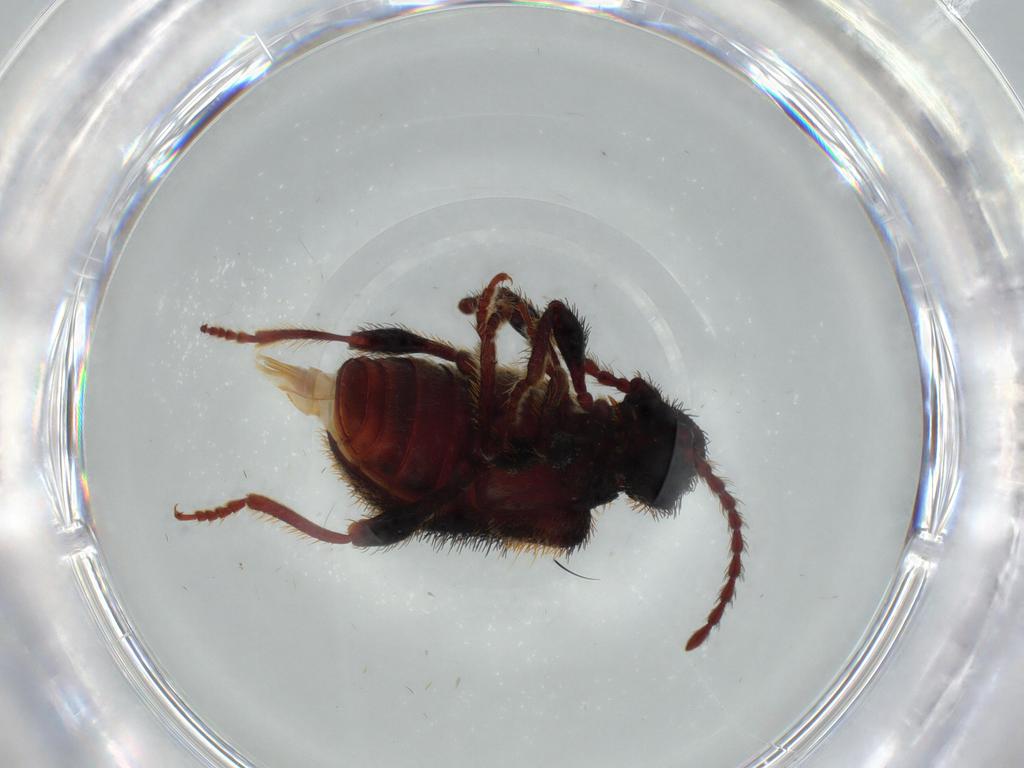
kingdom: Animalia
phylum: Arthropoda
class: Insecta
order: Coleoptera
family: Ptinidae
